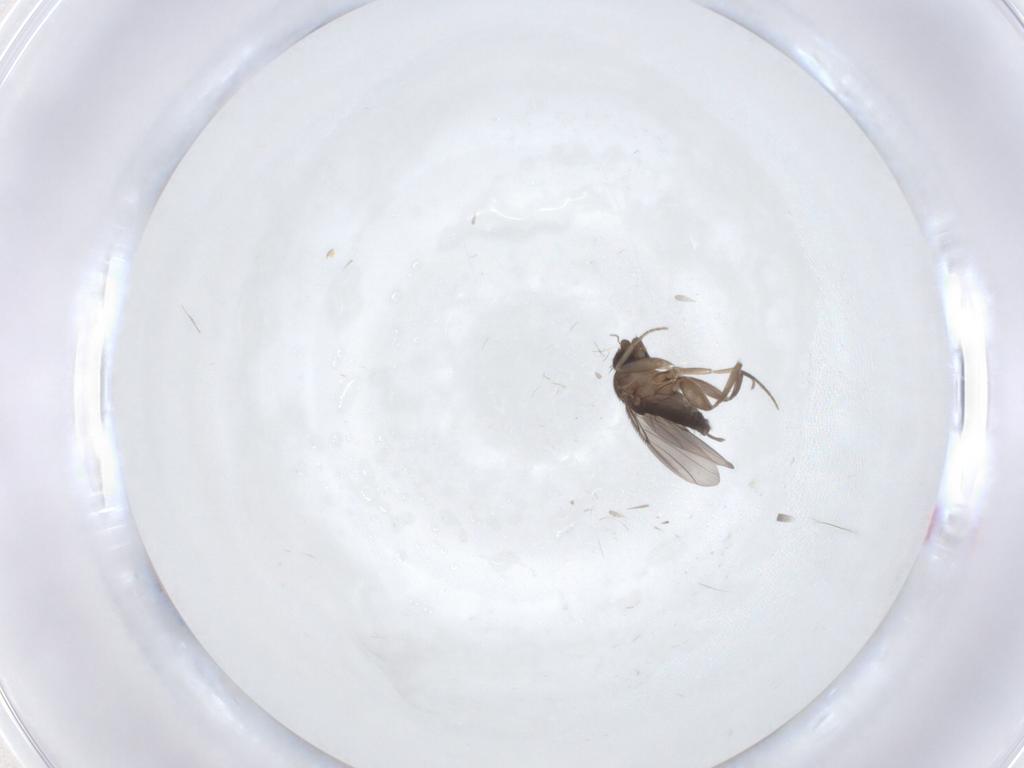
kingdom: Animalia
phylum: Arthropoda
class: Insecta
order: Diptera
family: Phoridae
